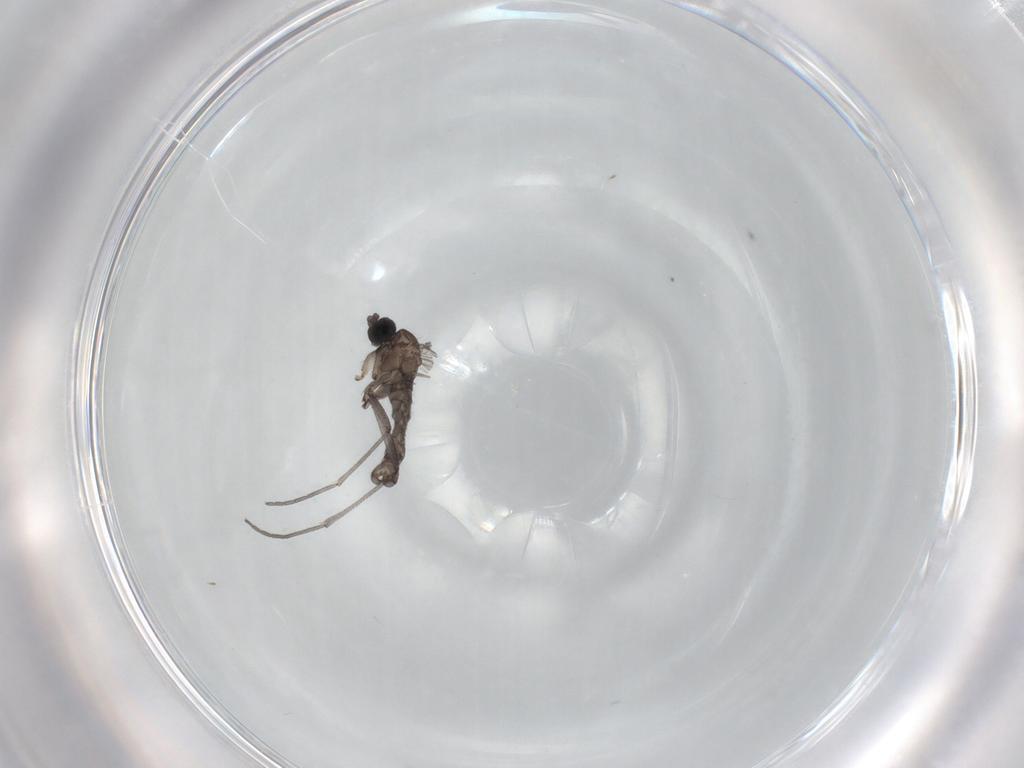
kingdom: Animalia
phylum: Arthropoda
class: Insecta
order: Diptera
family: Sciaridae
